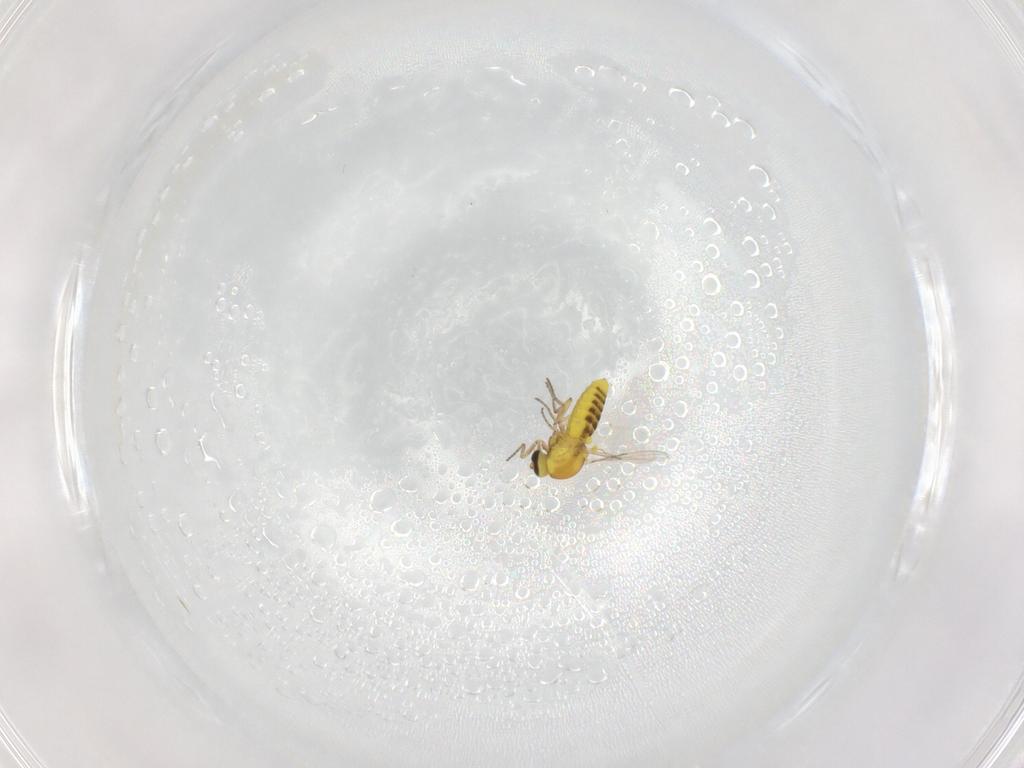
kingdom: Animalia
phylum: Arthropoda
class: Insecta
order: Diptera
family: Ceratopogonidae
